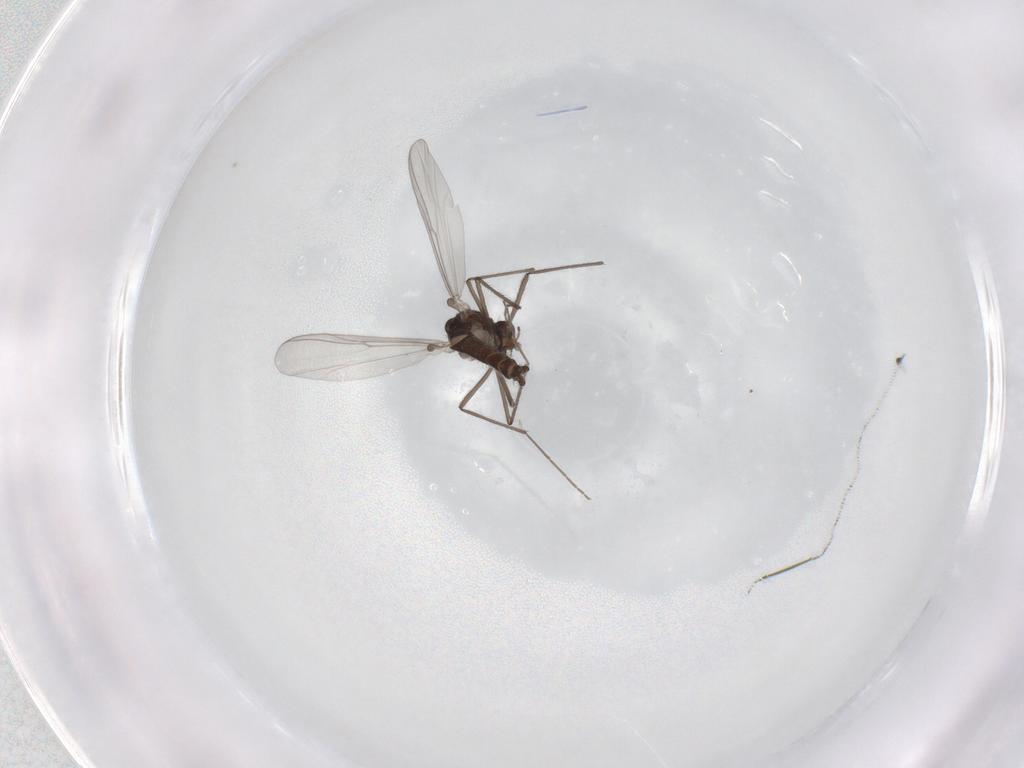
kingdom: Animalia
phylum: Arthropoda
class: Insecta
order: Diptera
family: Chironomidae
